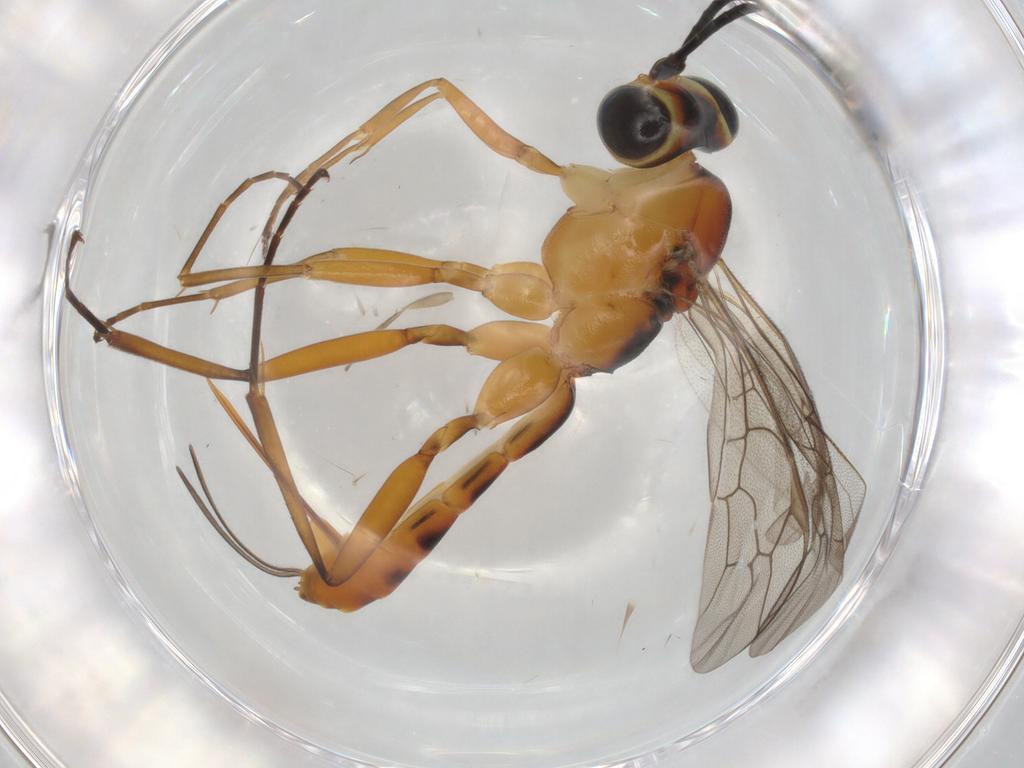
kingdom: Animalia
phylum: Arthropoda
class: Insecta
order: Hymenoptera
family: Ichneumonidae
